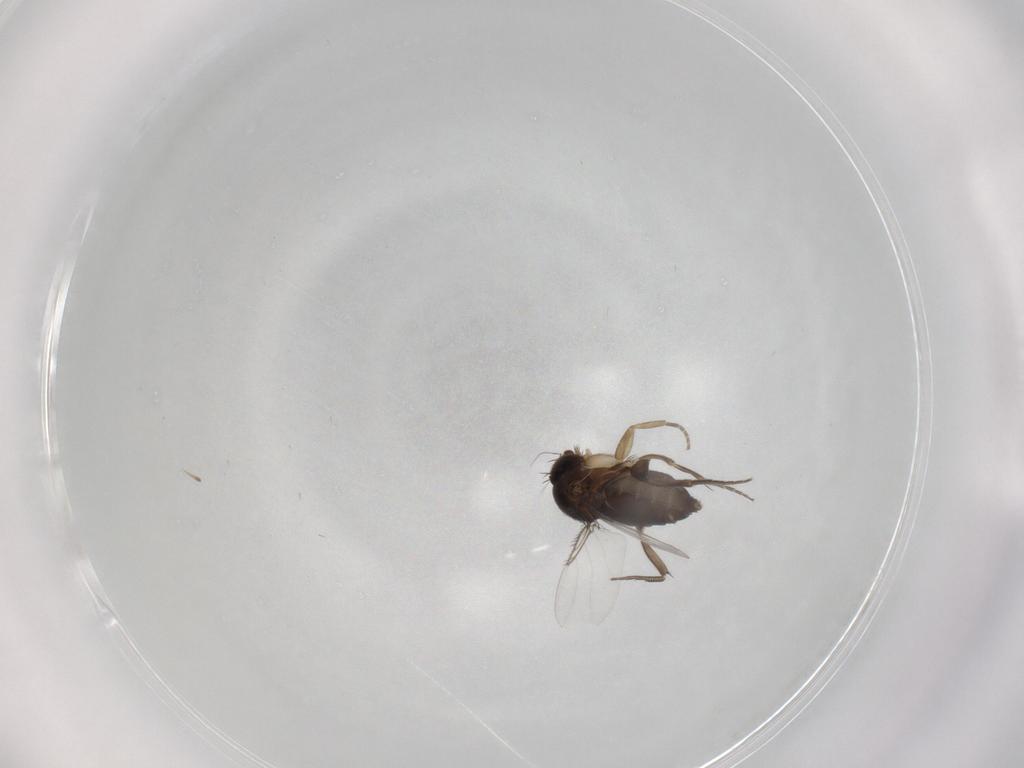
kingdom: Animalia
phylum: Arthropoda
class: Insecta
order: Diptera
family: Phoridae
